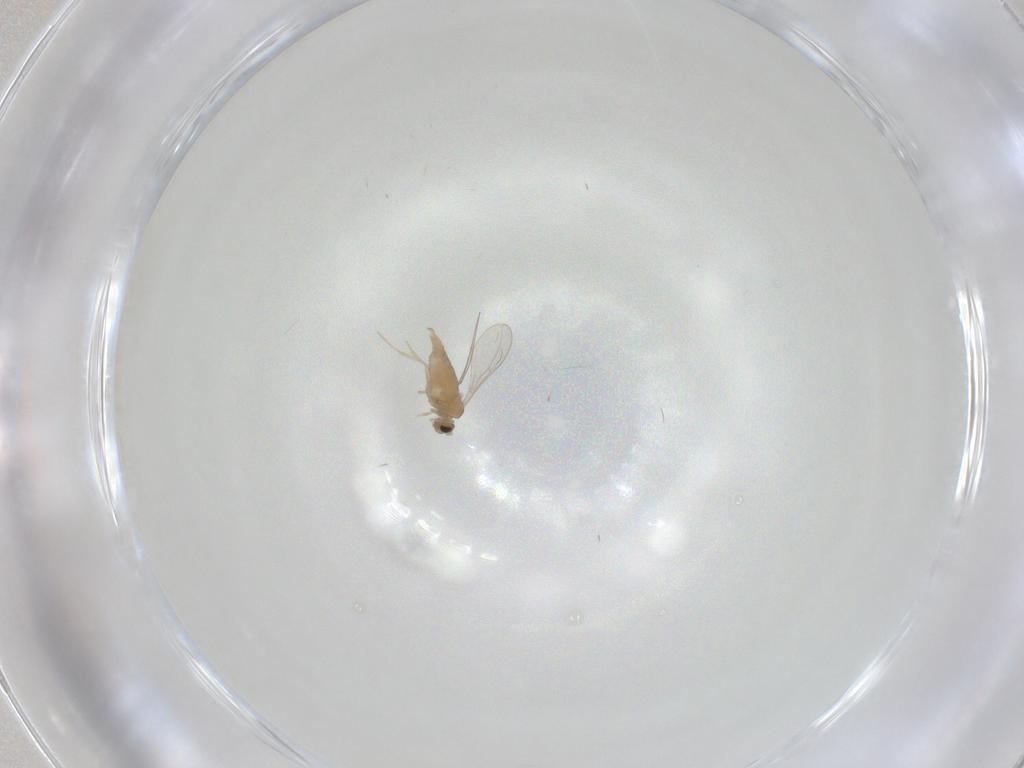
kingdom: Animalia
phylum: Arthropoda
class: Insecta
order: Diptera
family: Cecidomyiidae
